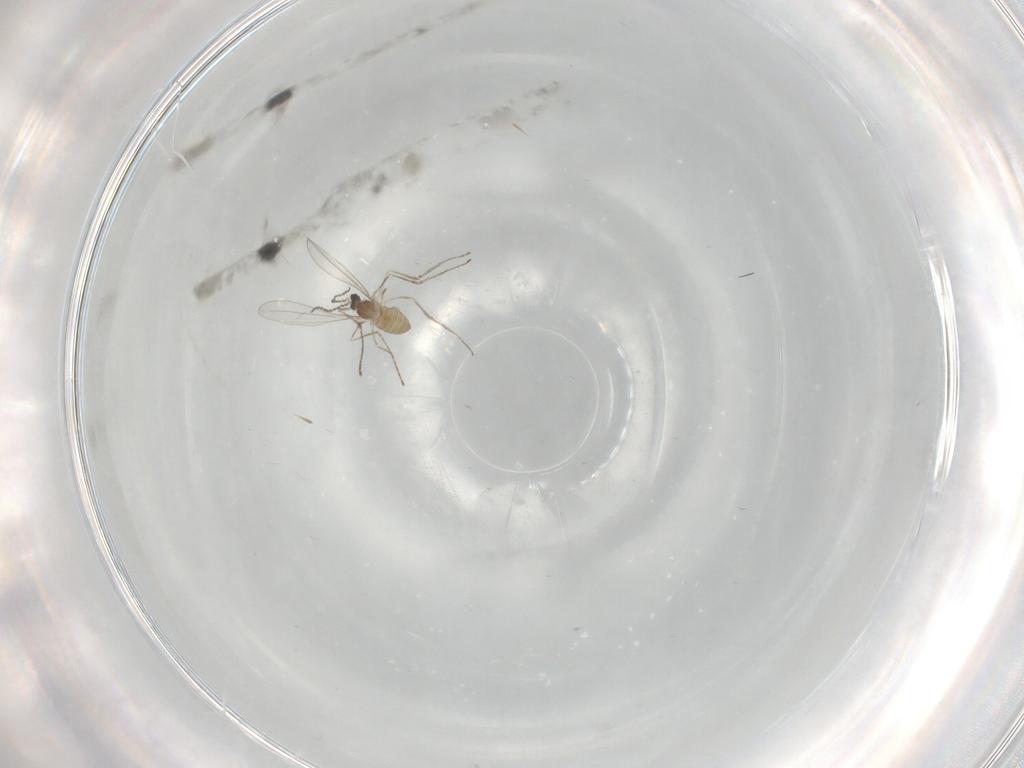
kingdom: Animalia
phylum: Arthropoda
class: Insecta
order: Diptera
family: Cecidomyiidae
